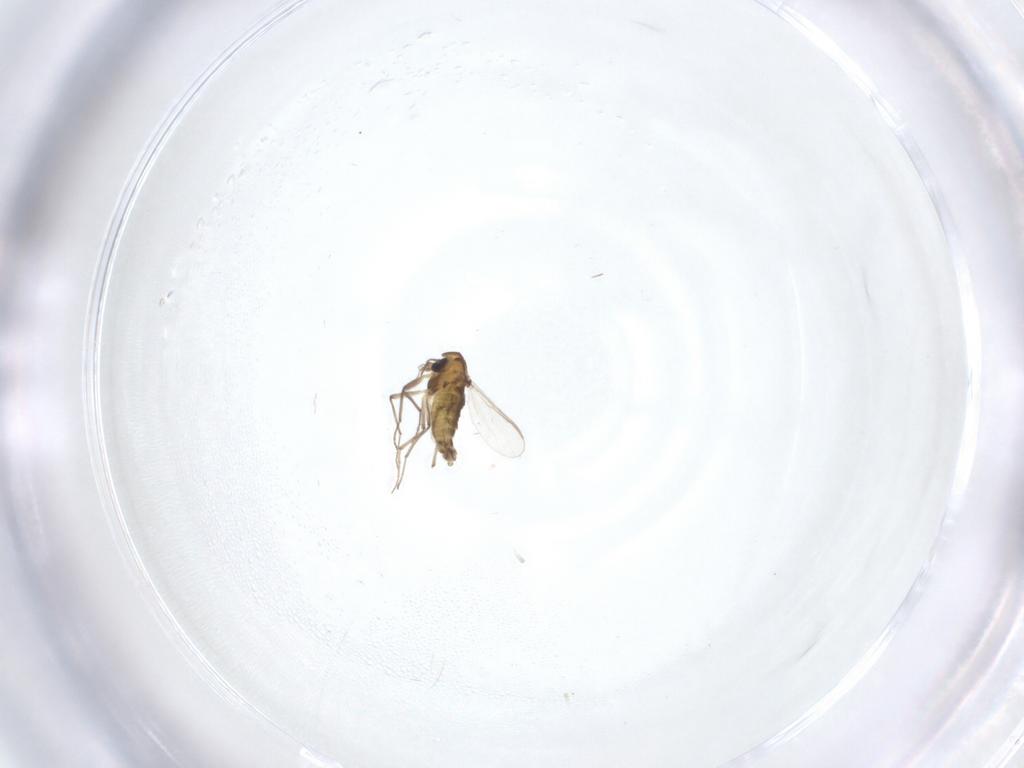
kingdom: Animalia
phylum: Arthropoda
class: Insecta
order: Diptera
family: Chironomidae
